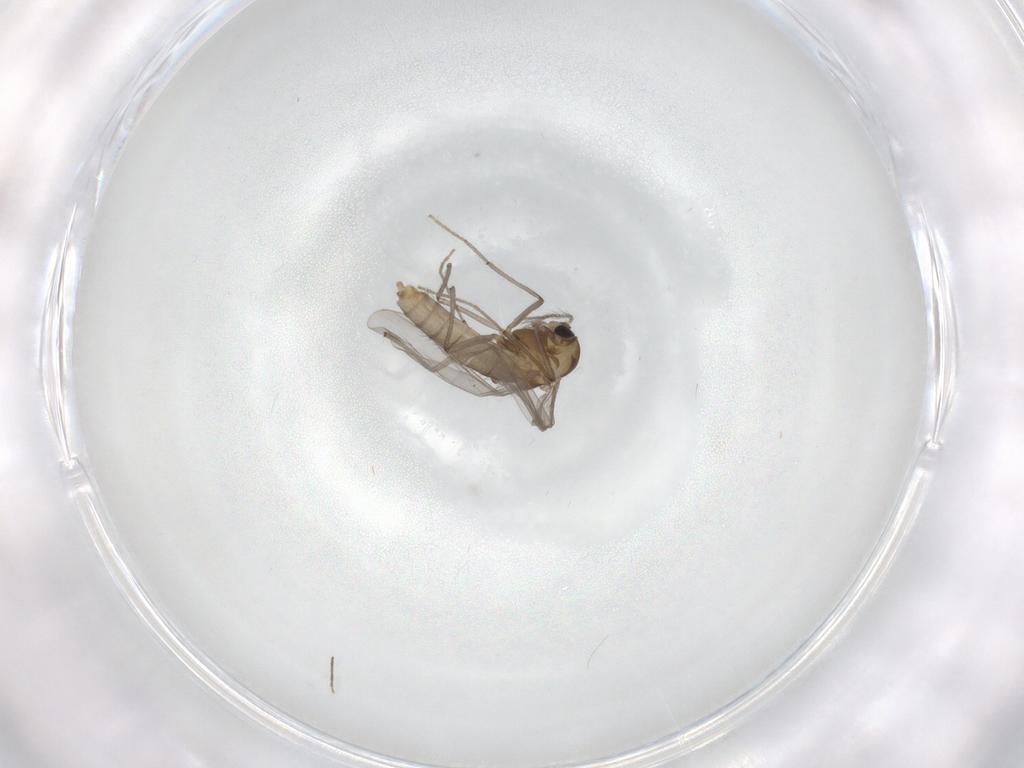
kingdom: Animalia
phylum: Arthropoda
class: Insecta
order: Diptera
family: Chironomidae
